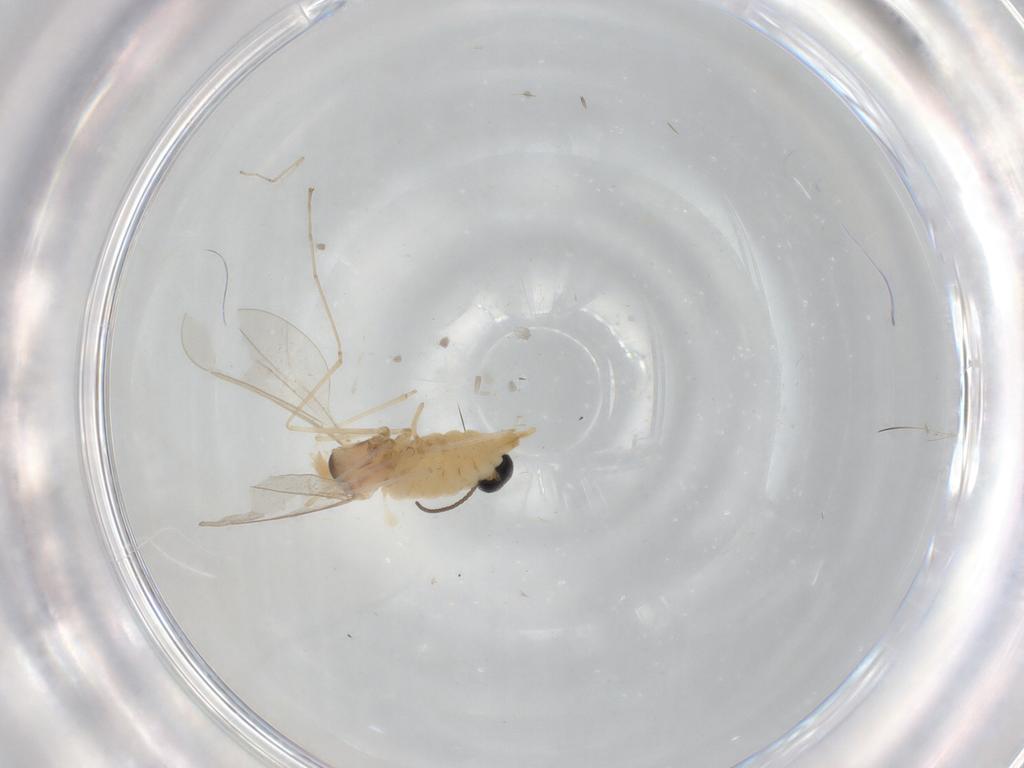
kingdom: Animalia
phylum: Arthropoda
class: Insecta
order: Diptera
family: Cecidomyiidae
